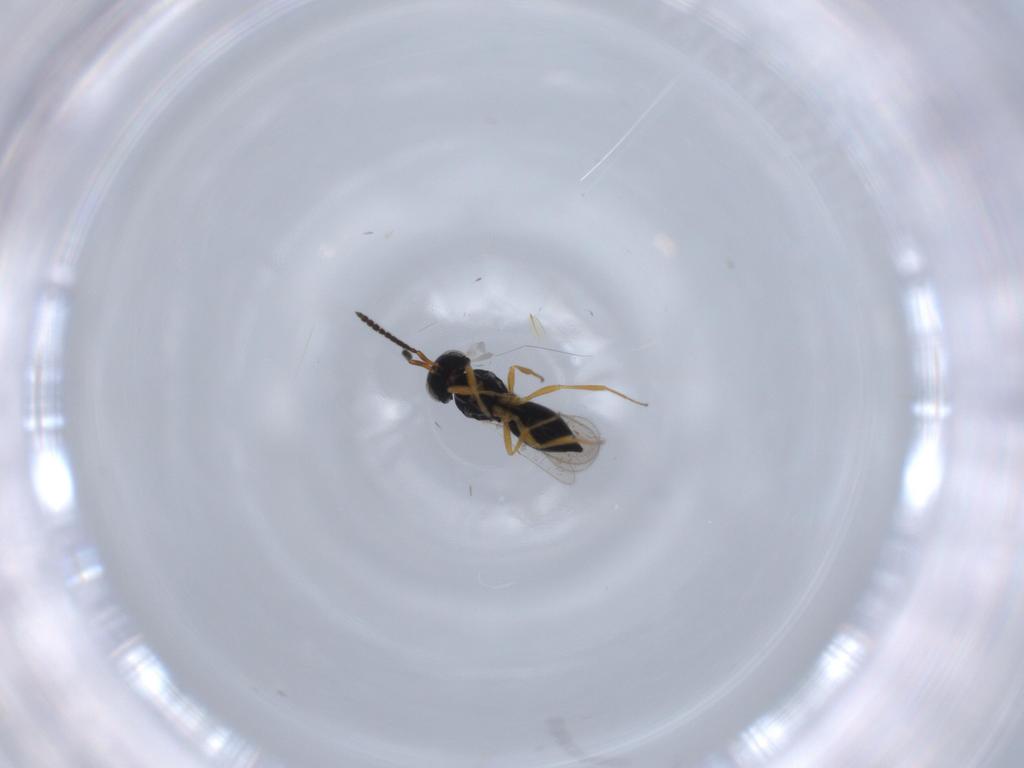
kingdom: Animalia
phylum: Arthropoda
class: Insecta
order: Hymenoptera
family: Scelionidae
